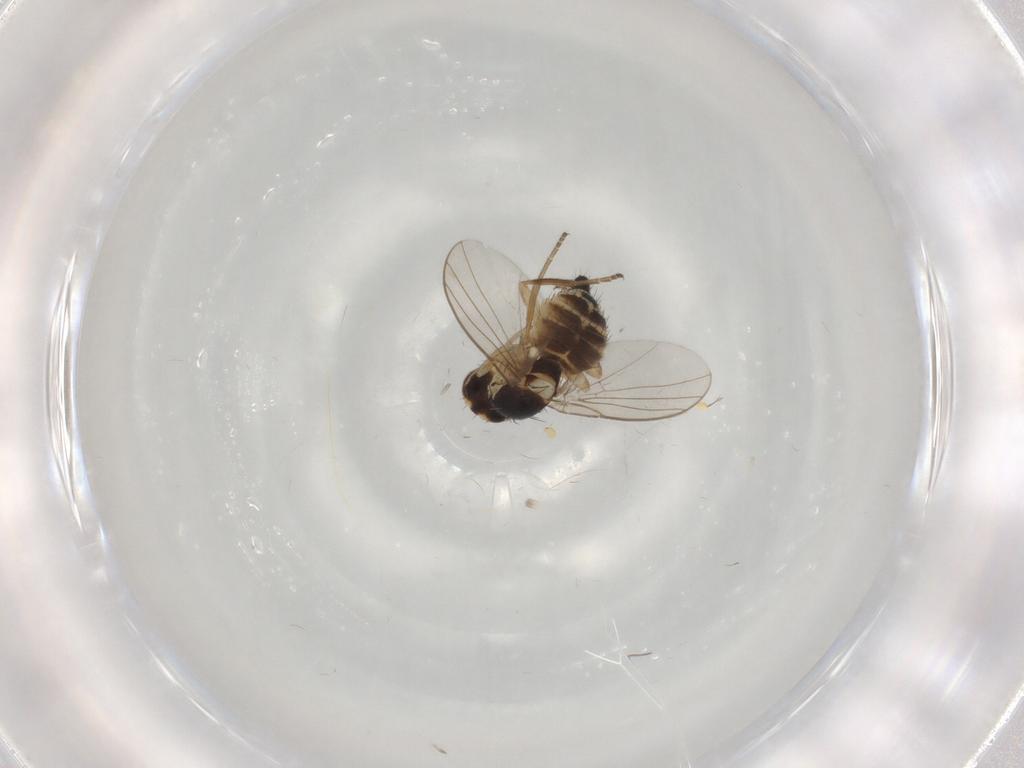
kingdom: Animalia
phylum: Arthropoda
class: Insecta
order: Diptera
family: Agromyzidae
